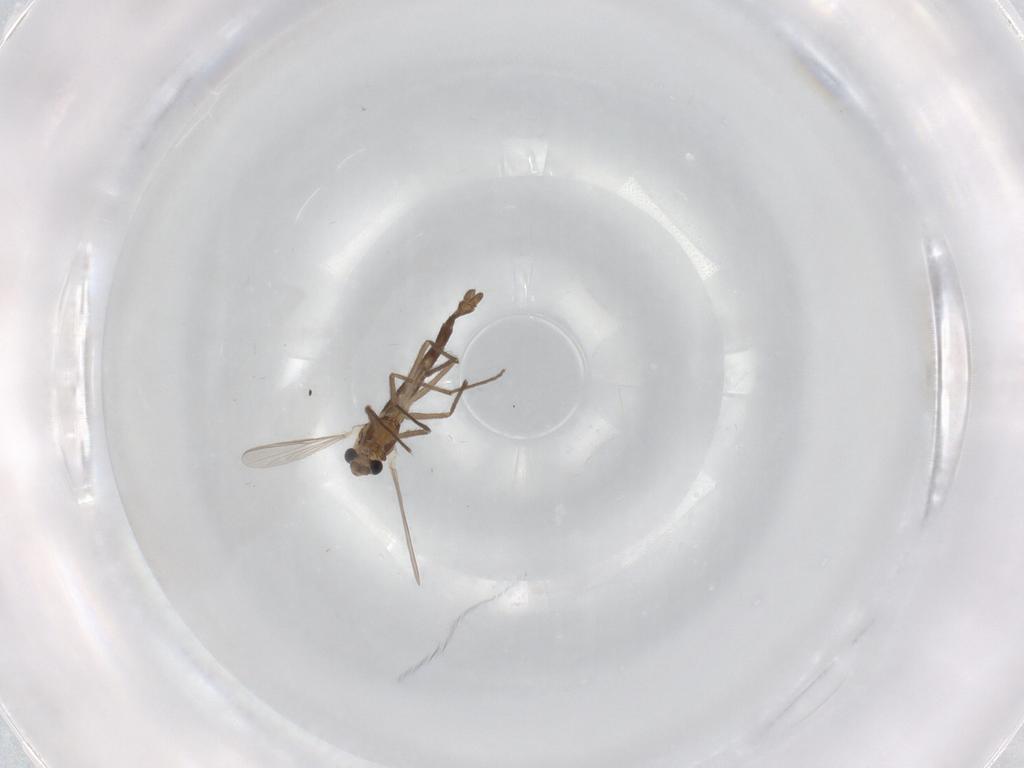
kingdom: Animalia
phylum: Arthropoda
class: Insecta
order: Diptera
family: Chironomidae
